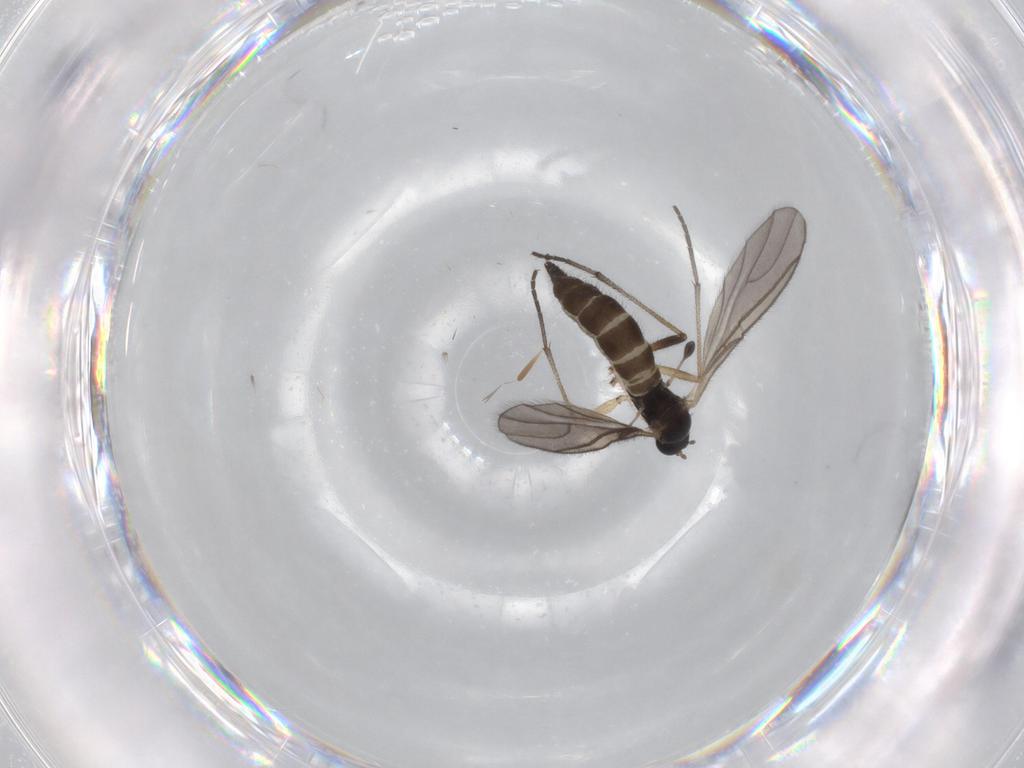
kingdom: Animalia
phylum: Arthropoda
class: Insecta
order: Diptera
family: Sciaridae
